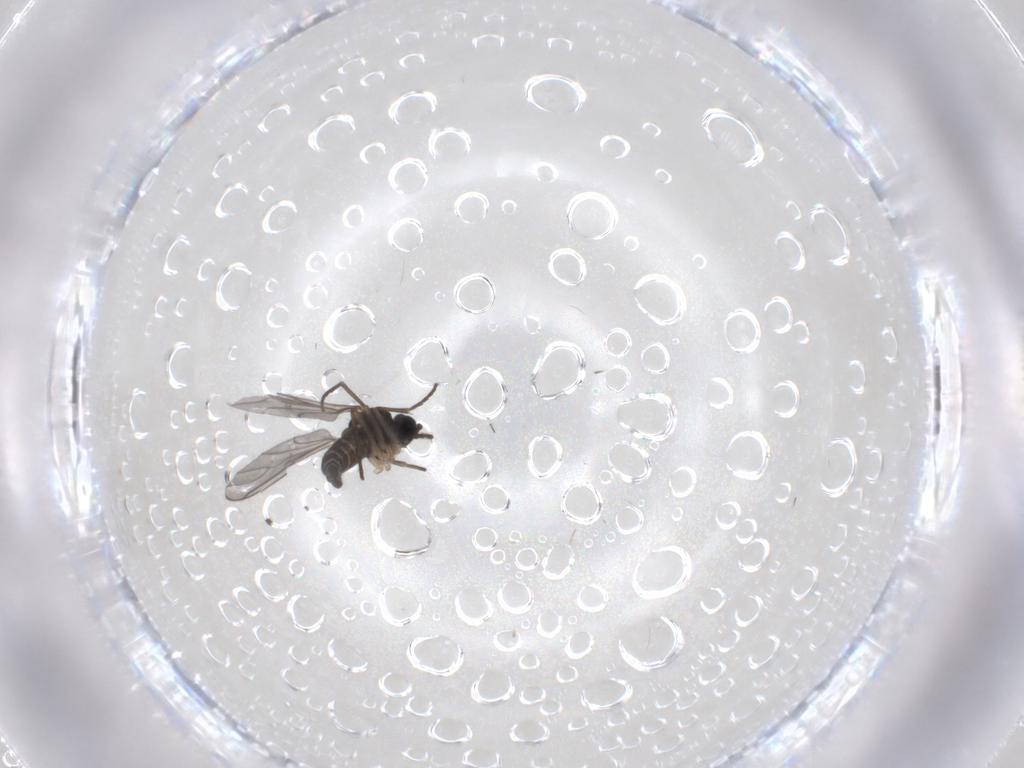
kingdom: Animalia
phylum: Arthropoda
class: Insecta
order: Diptera
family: Sciaridae
